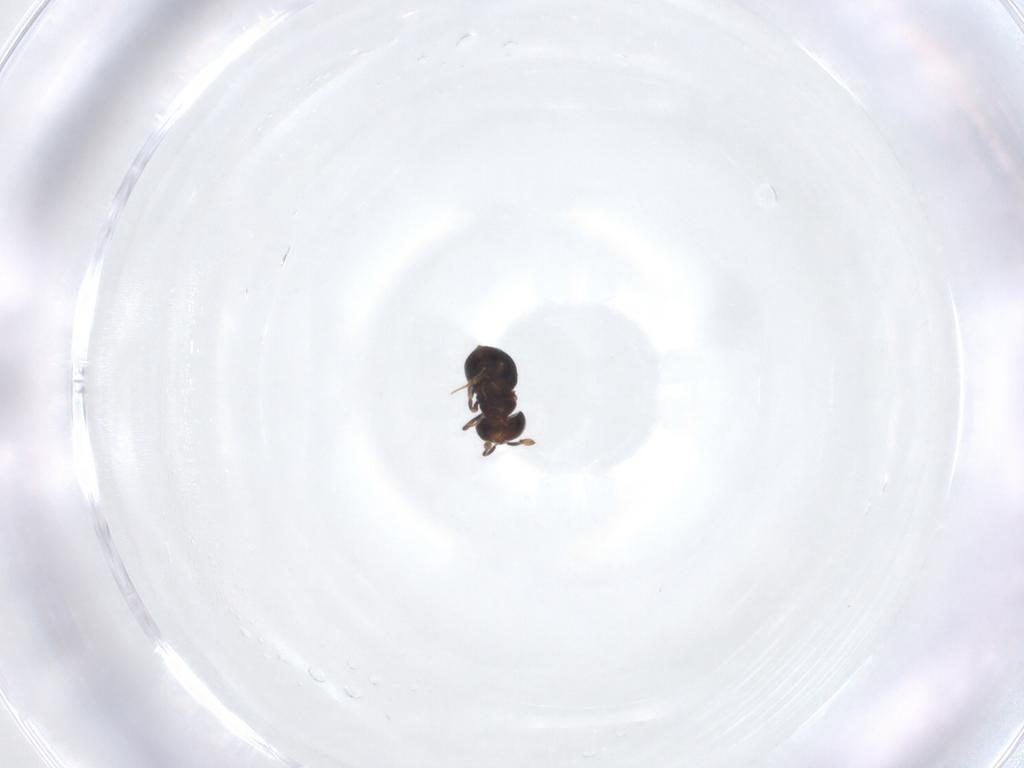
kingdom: Animalia
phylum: Arthropoda
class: Insecta
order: Hymenoptera
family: Scelionidae
